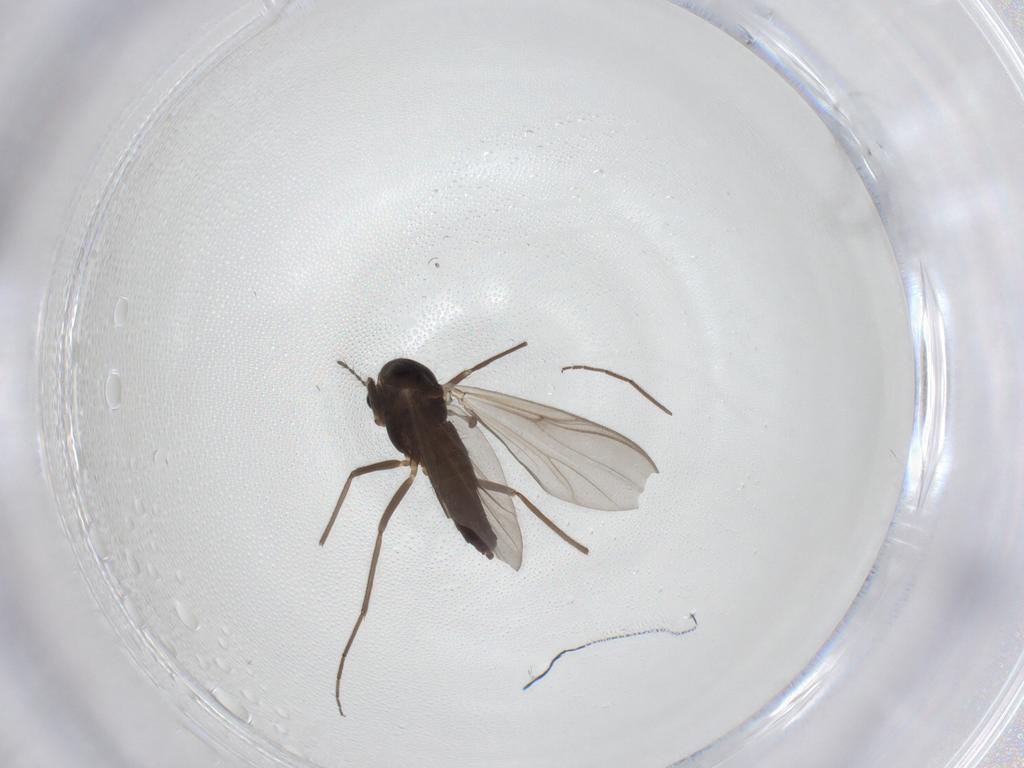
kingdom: Animalia
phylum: Arthropoda
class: Insecta
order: Diptera
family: Chironomidae
